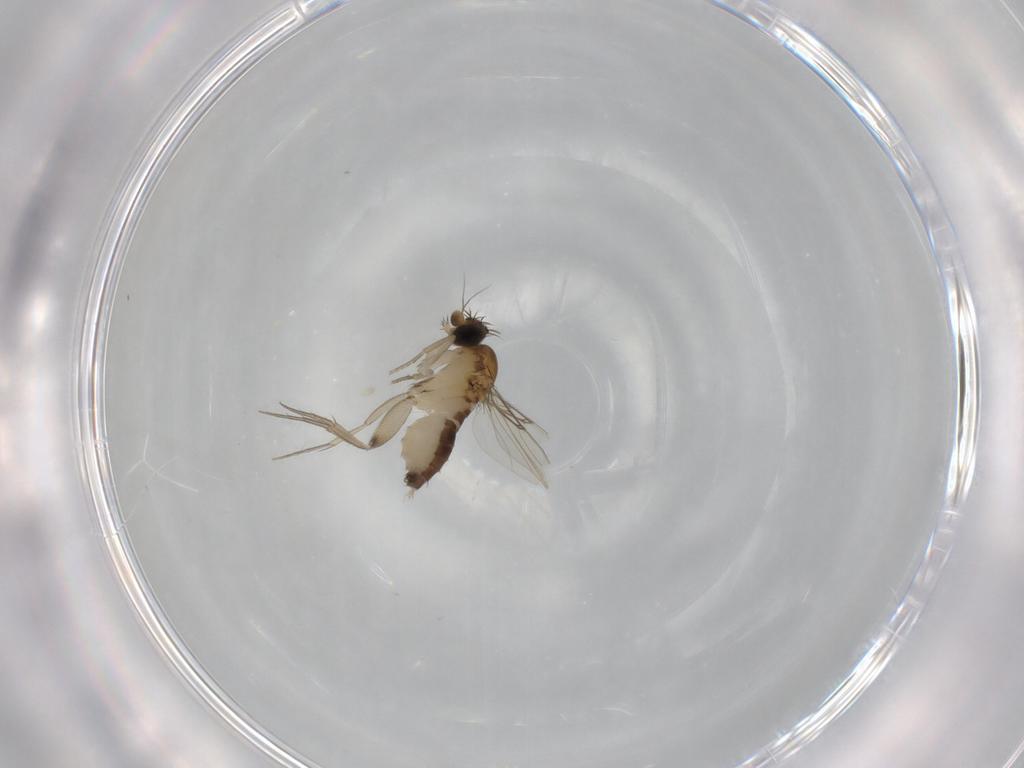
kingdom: Animalia
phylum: Arthropoda
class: Insecta
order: Diptera
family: Phoridae
